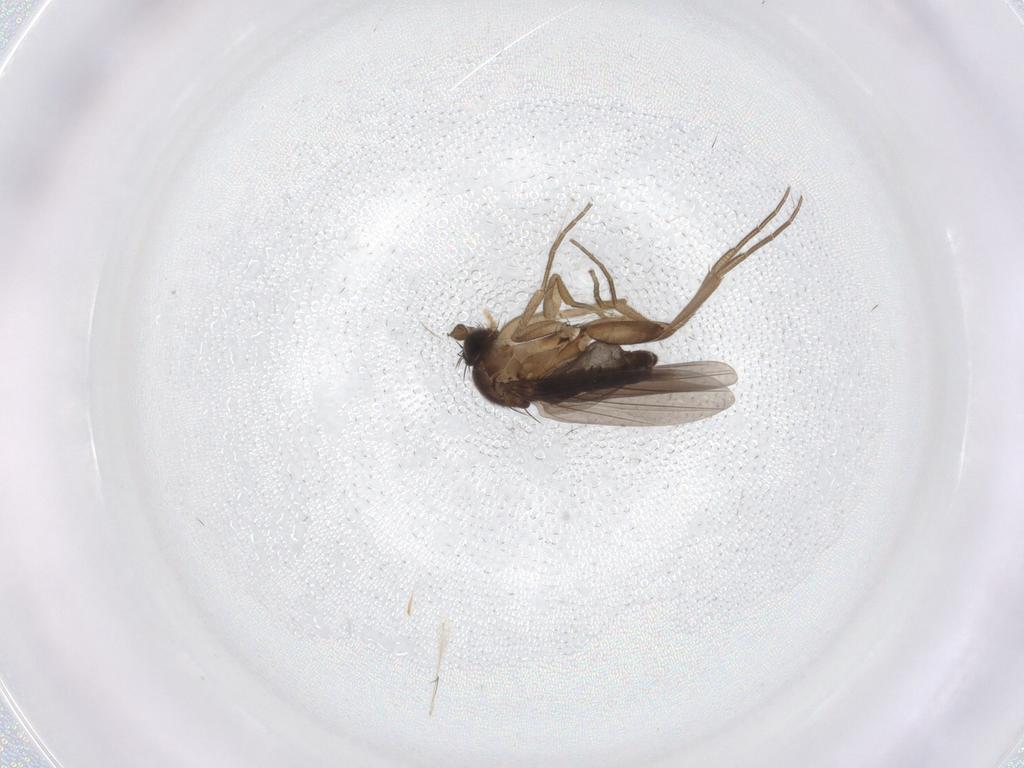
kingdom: Animalia
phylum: Arthropoda
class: Insecta
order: Diptera
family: Phoridae
